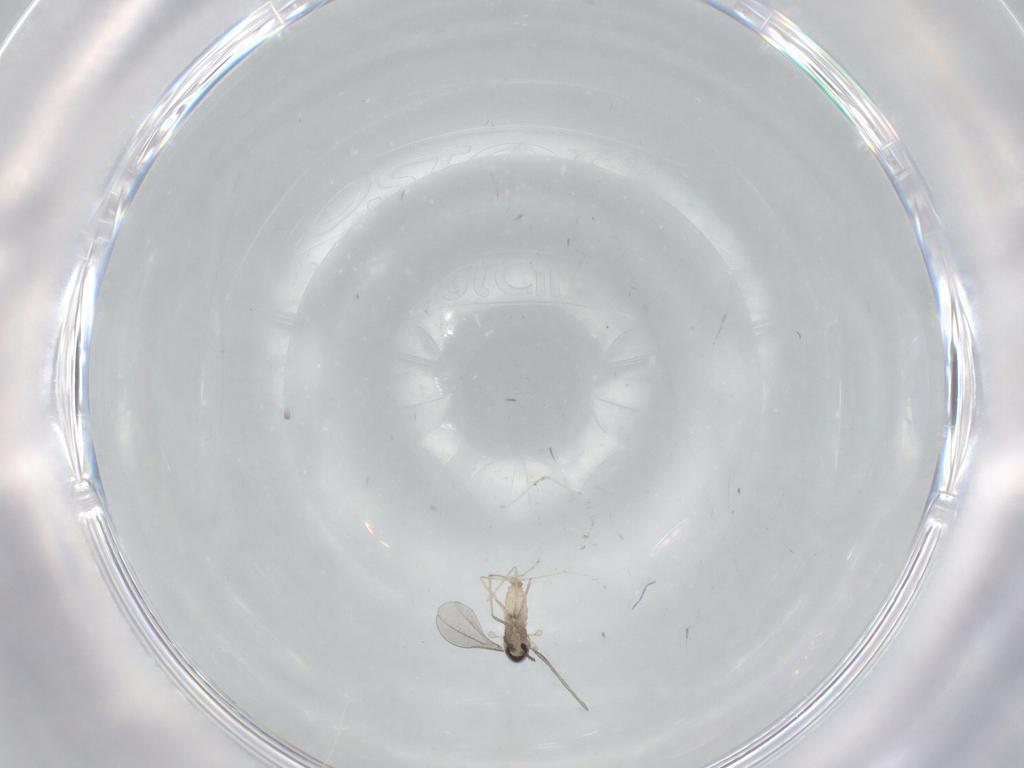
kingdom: Animalia
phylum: Arthropoda
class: Insecta
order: Diptera
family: Cecidomyiidae
